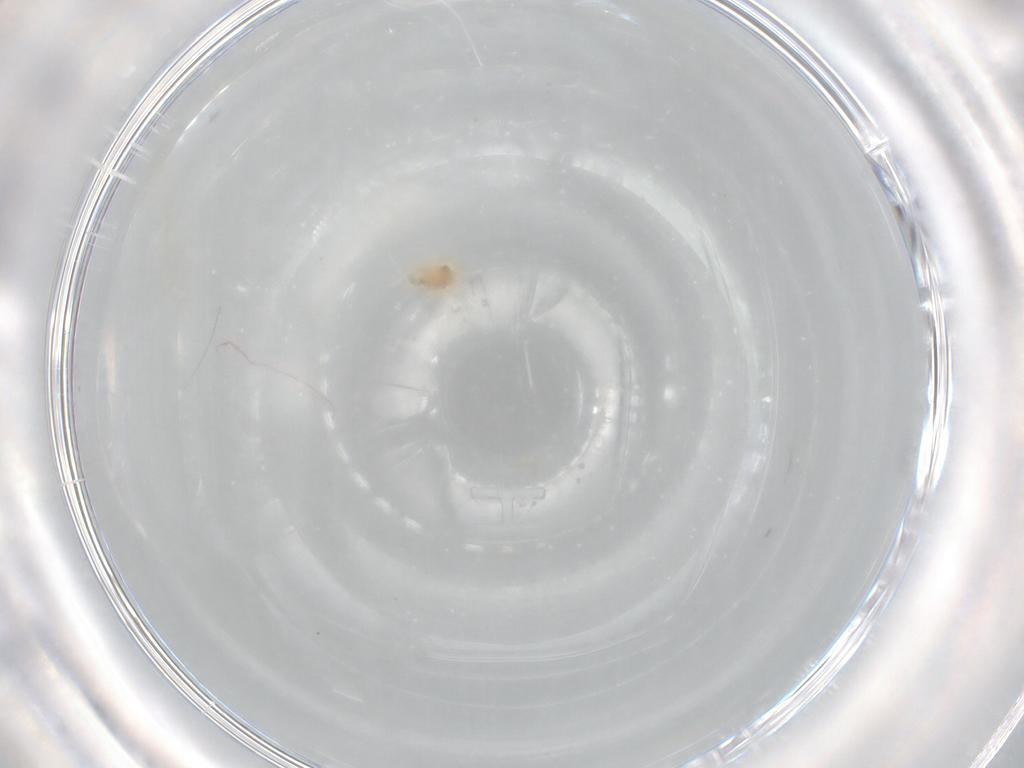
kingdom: Animalia
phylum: Arthropoda
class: Arachnida
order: Trombidiformes
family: Eupodidae
